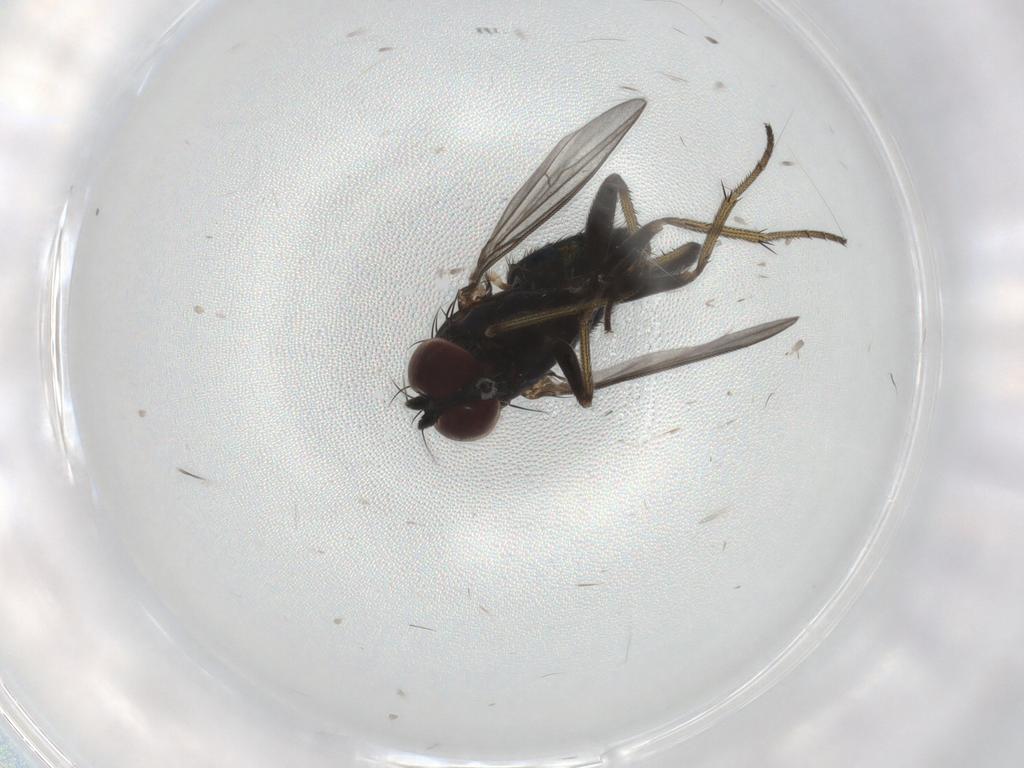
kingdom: Animalia
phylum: Arthropoda
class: Insecta
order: Diptera
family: Dolichopodidae
